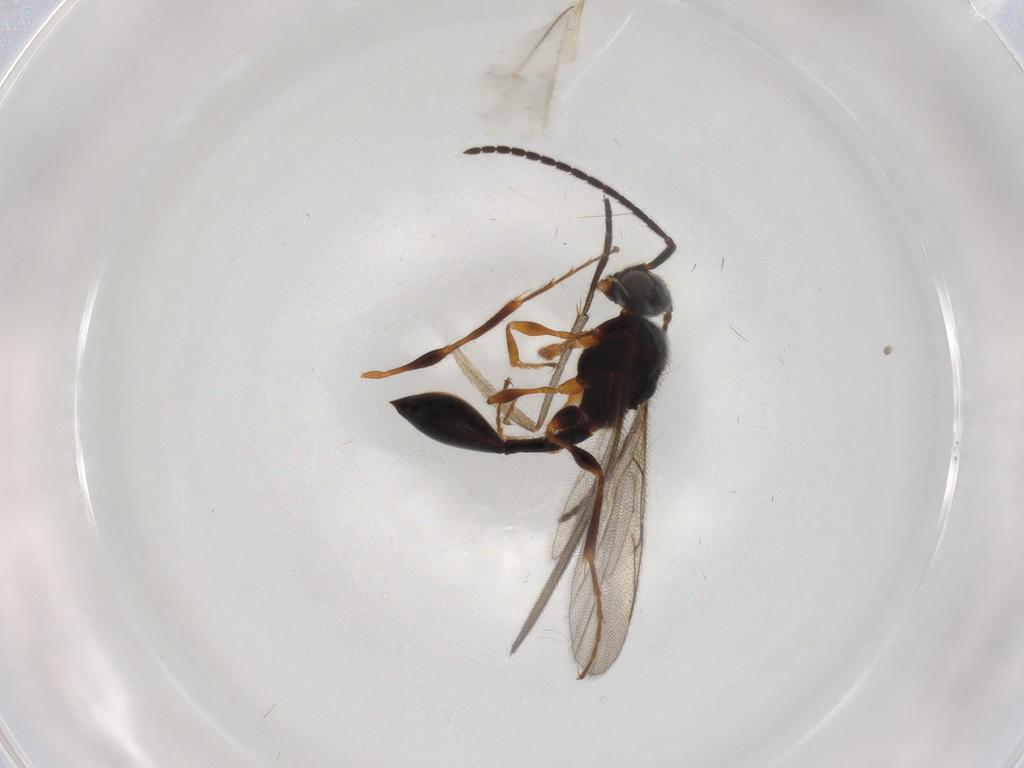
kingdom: Animalia
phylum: Arthropoda
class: Insecta
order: Hymenoptera
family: Diapriidae
